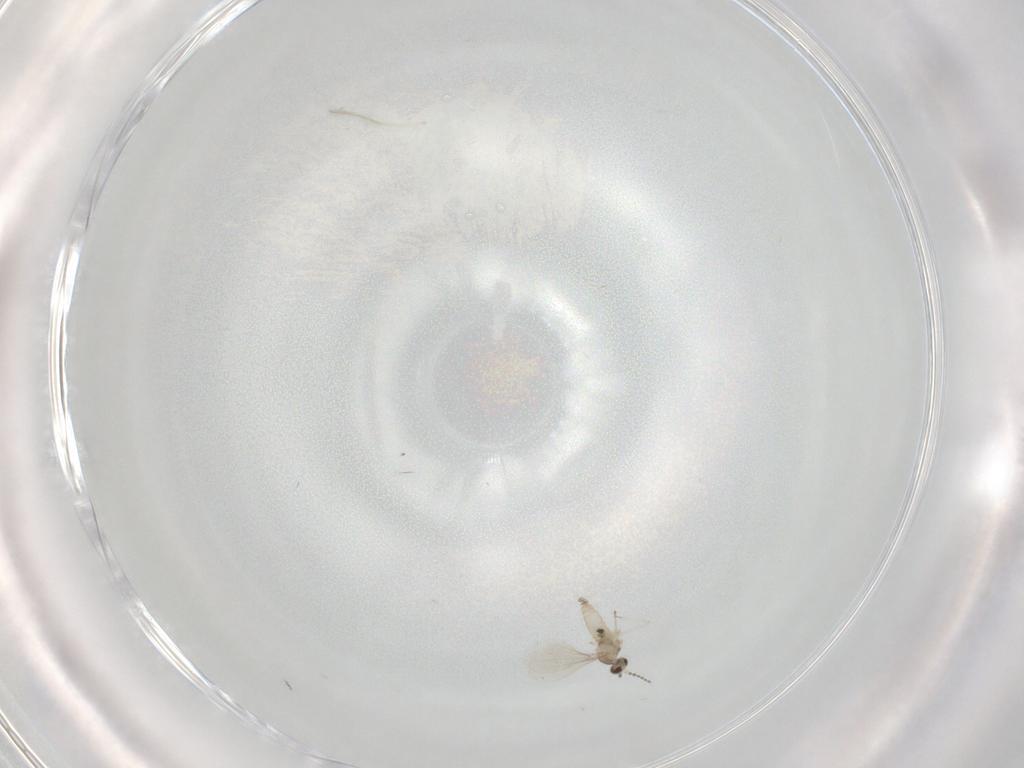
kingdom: Animalia
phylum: Arthropoda
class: Insecta
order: Diptera
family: Cecidomyiidae
